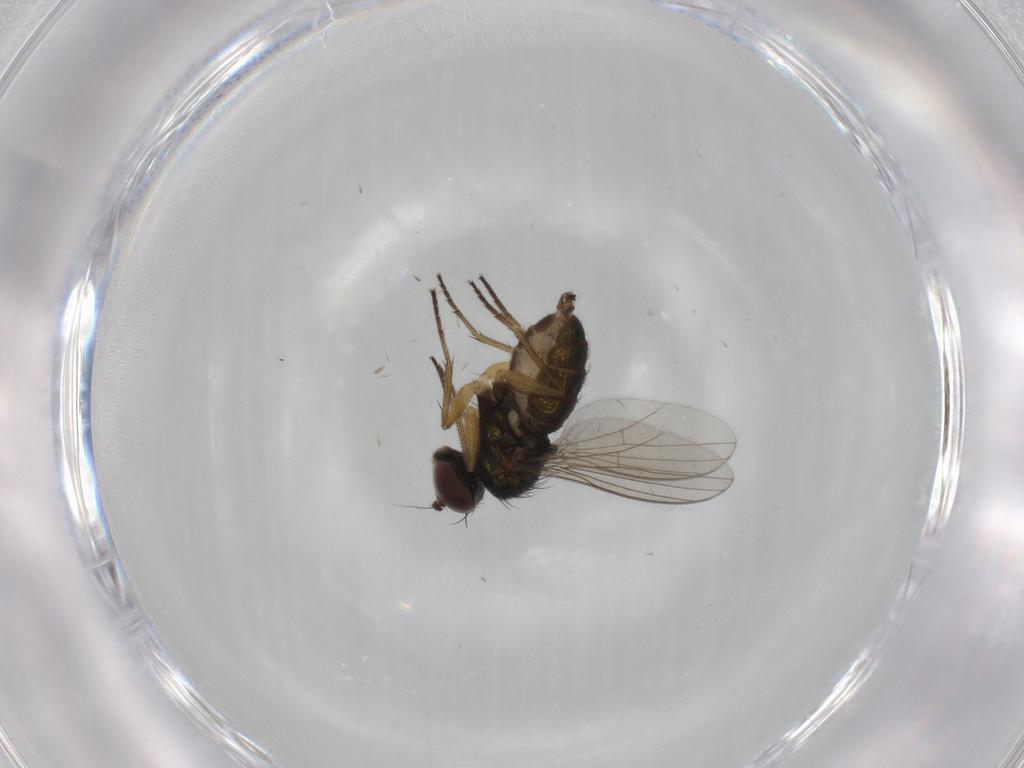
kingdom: Animalia
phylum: Arthropoda
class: Insecta
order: Diptera
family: Dolichopodidae
